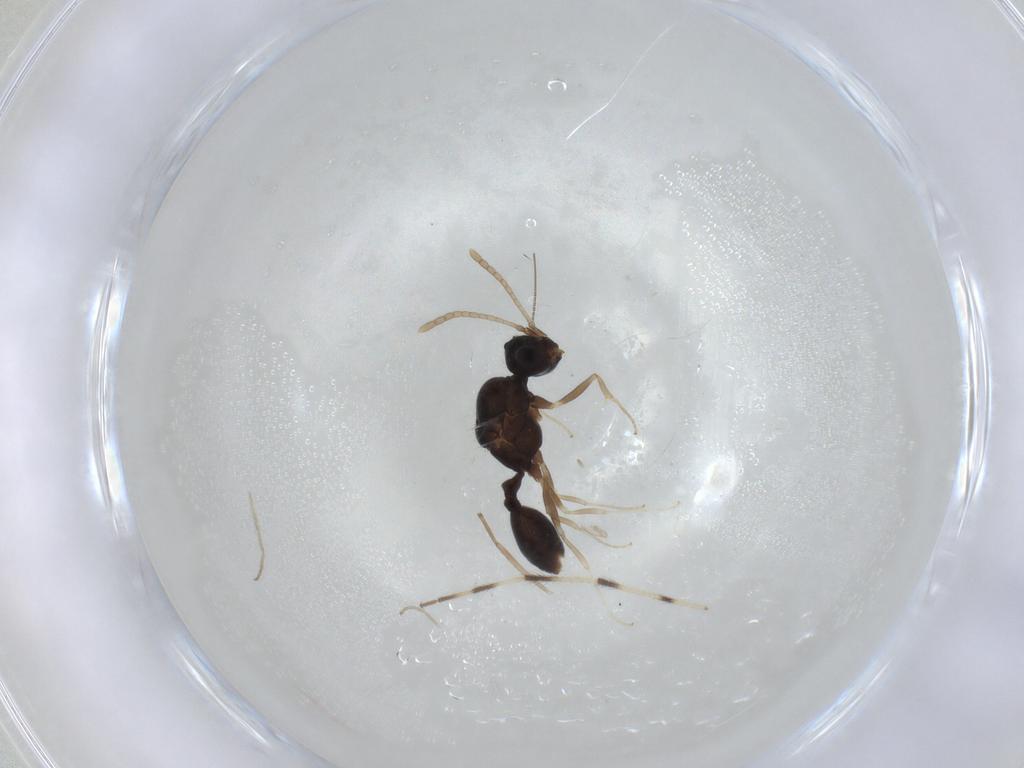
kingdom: Animalia
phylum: Arthropoda
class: Insecta
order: Hymenoptera
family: Formicidae
